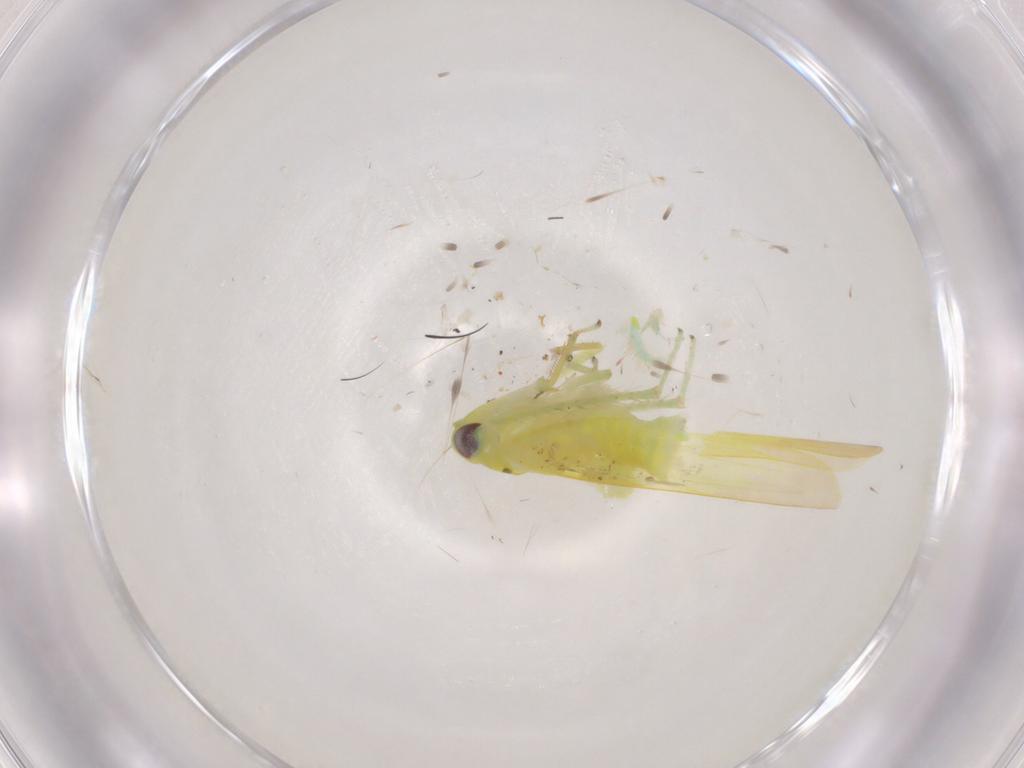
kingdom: Animalia
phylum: Arthropoda
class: Insecta
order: Hemiptera
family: Cicadellidae
